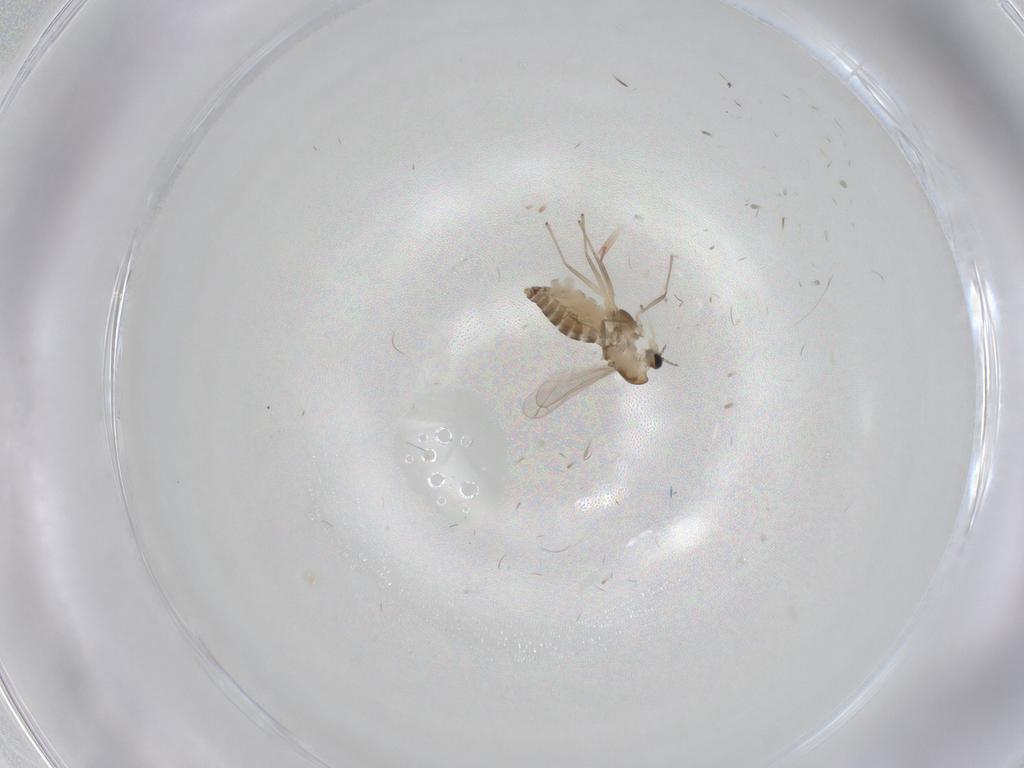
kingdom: Animalia
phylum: Arthropoda
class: Insecta
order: Diptera
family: Chironomidae
